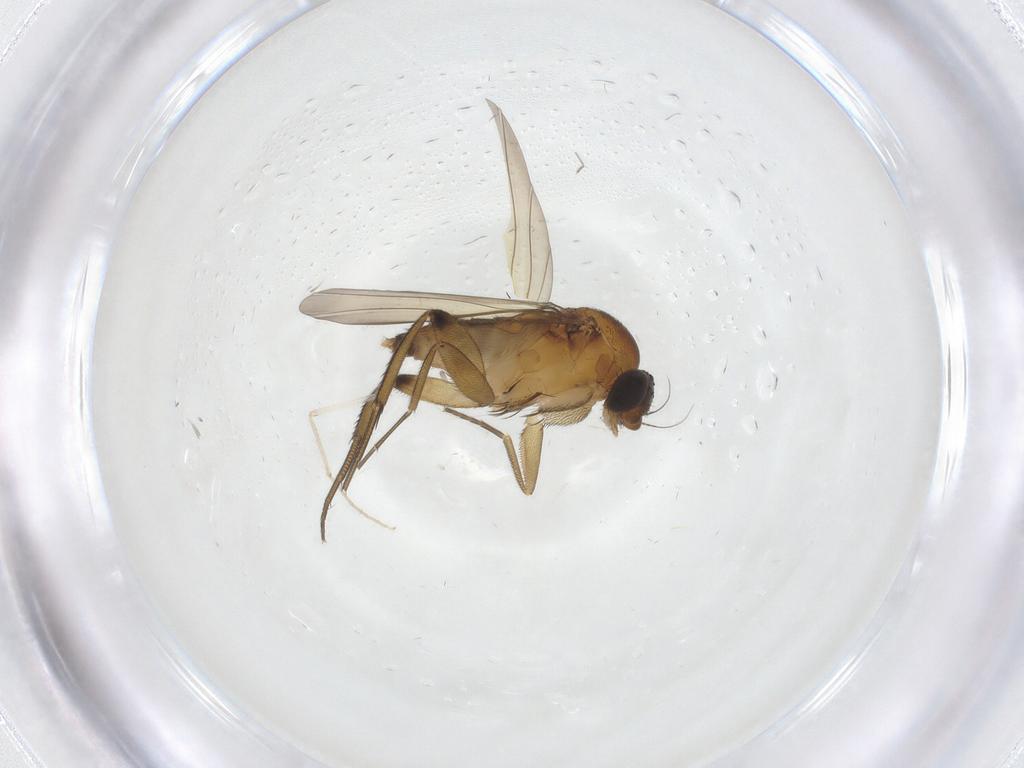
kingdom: Animalia
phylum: Arthropoda
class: Insecta
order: Diptera
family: Phoridae
